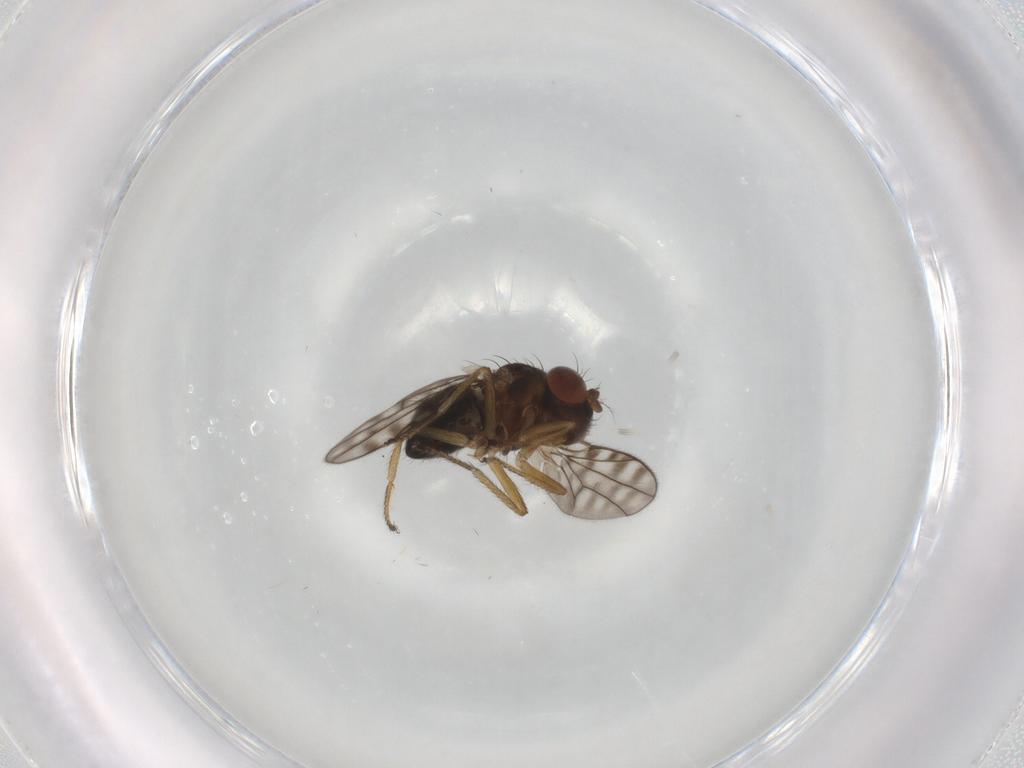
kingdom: Animalia
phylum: Arthropoda
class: Insecta
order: Diptera
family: Ephydridae
